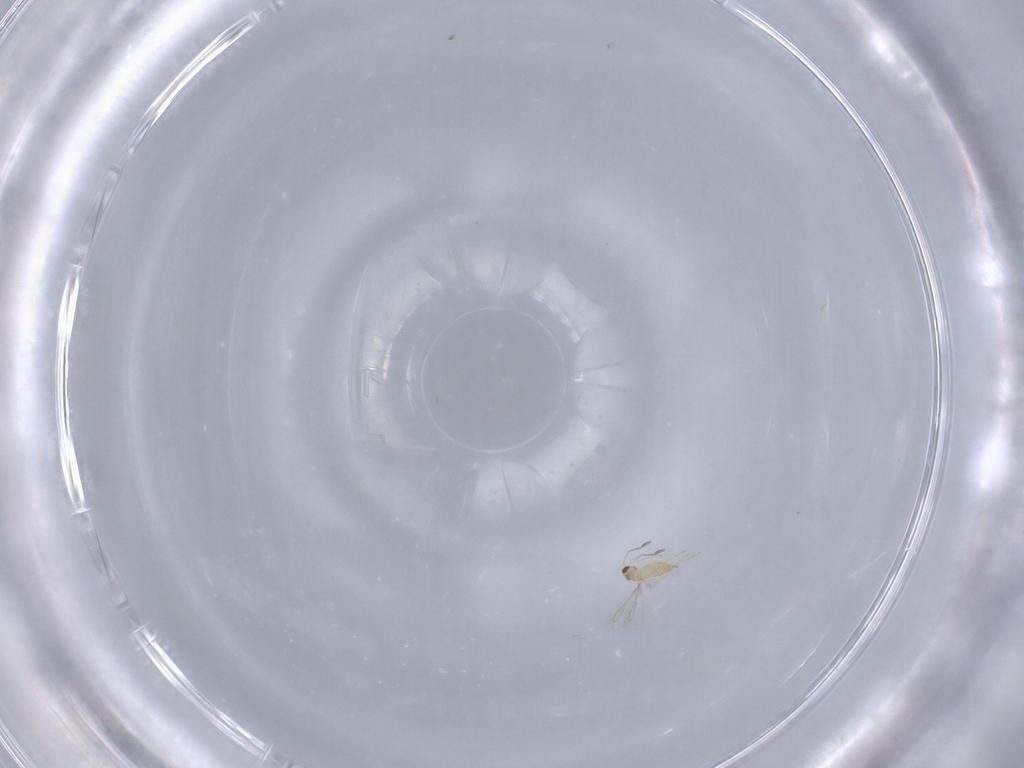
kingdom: Animalia
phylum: Arthropoda
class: Insecta
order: Hymenoptera
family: Mymaridae
